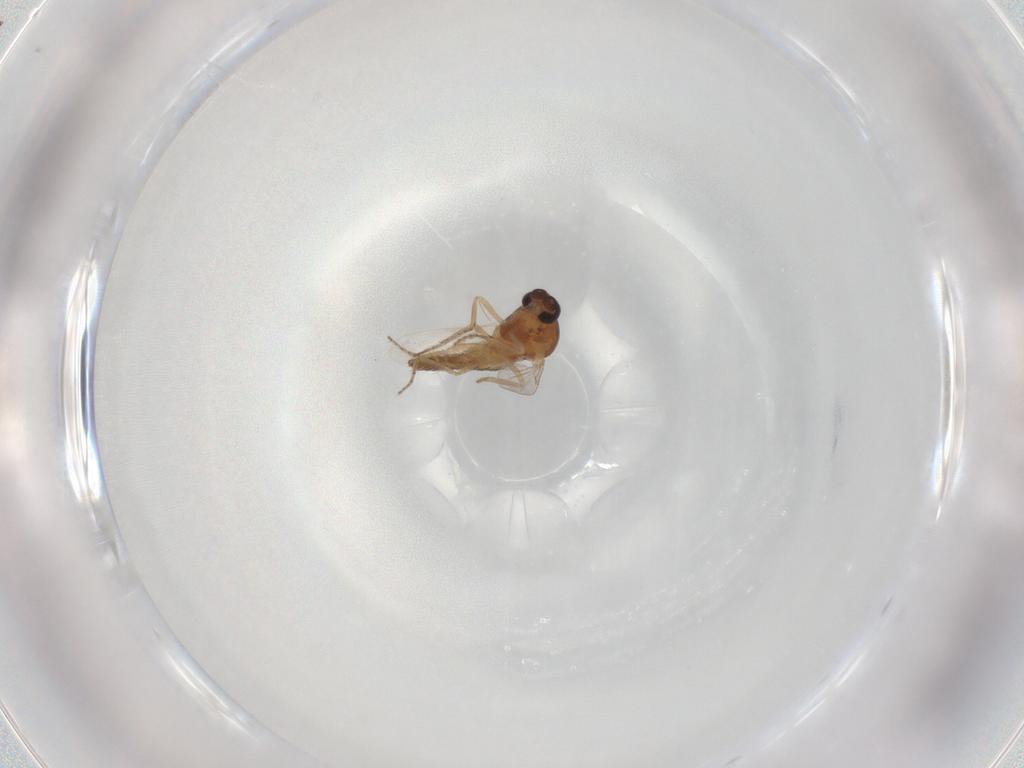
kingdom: Animalia
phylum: Arthropoda
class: Insecta
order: Diptera
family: Ceratopogonidae
